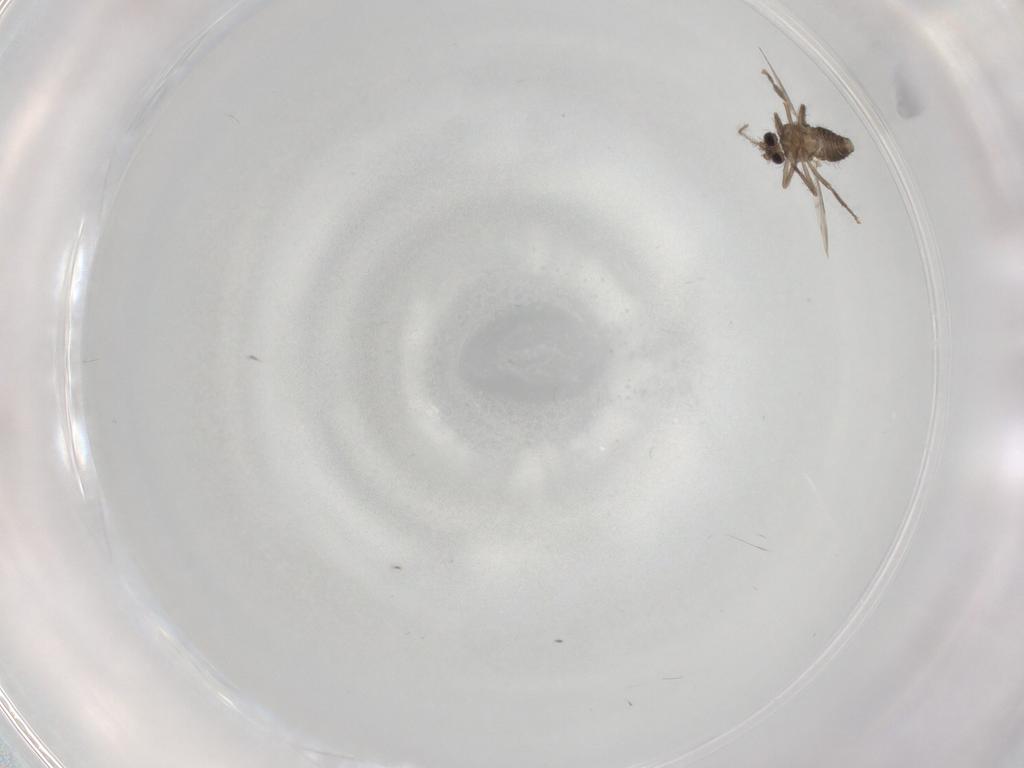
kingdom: Animalia
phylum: Arthropoda
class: Insecta
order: Diptera
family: Ceratopogonidae
